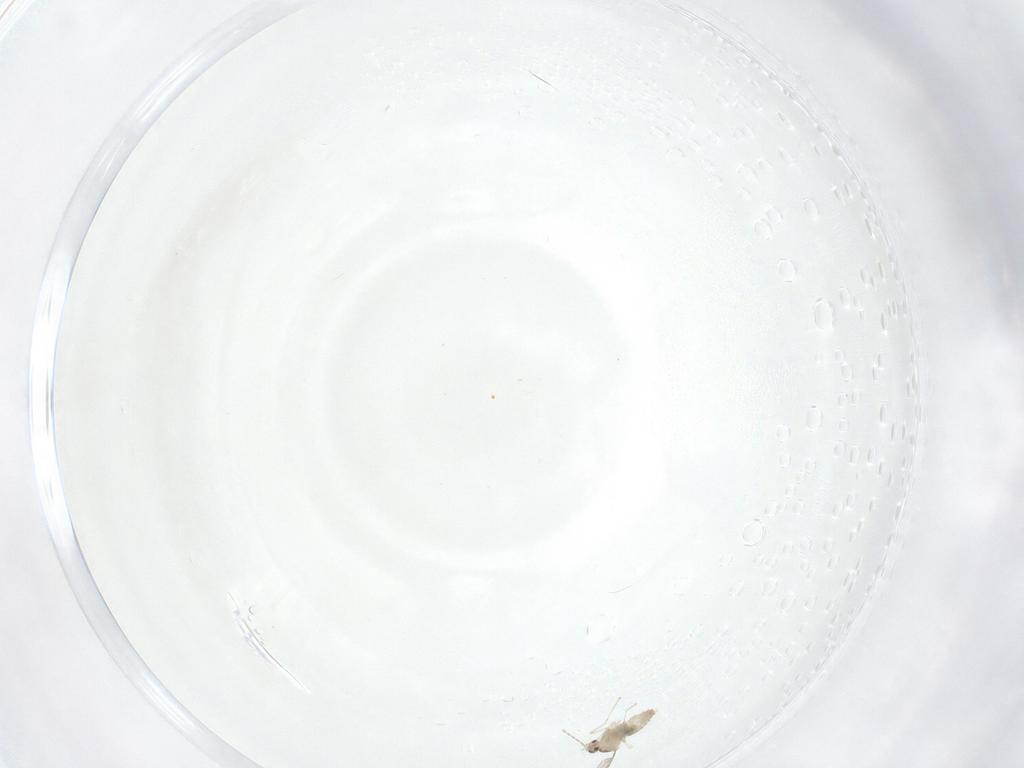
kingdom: Animalia
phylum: Arthropoda
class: Insecta
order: Diptera
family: Cecidomyiidae
